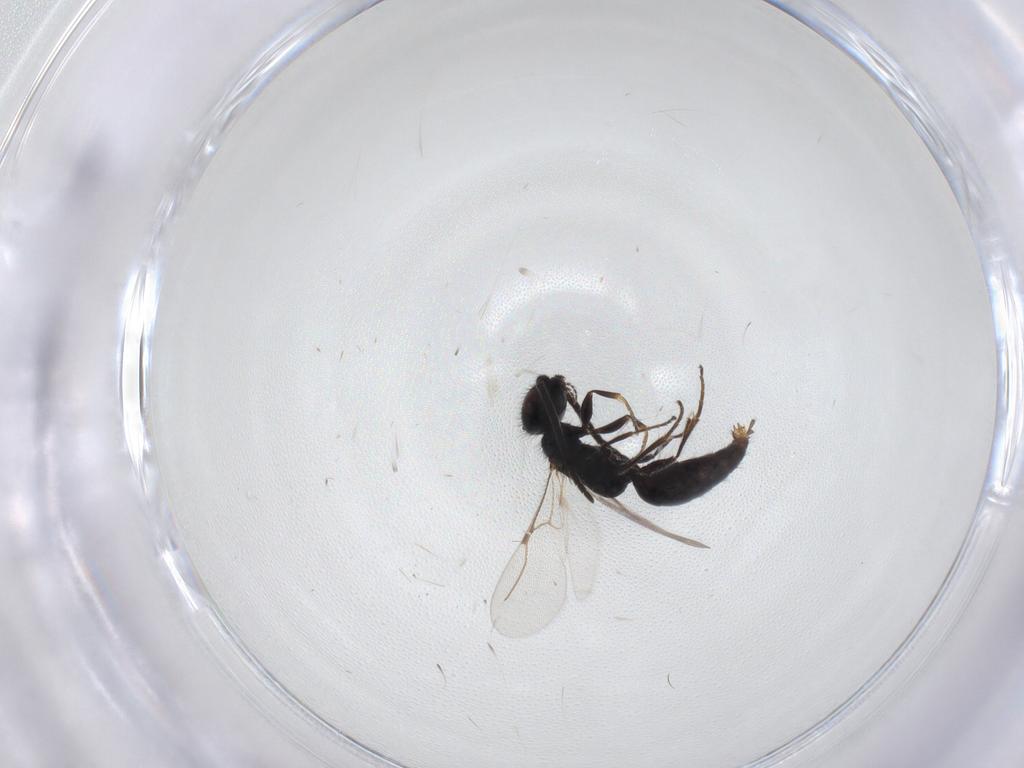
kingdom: Animalia
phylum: Arthropoda
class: Insecta
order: Hymenoptera
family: Bethylidae
